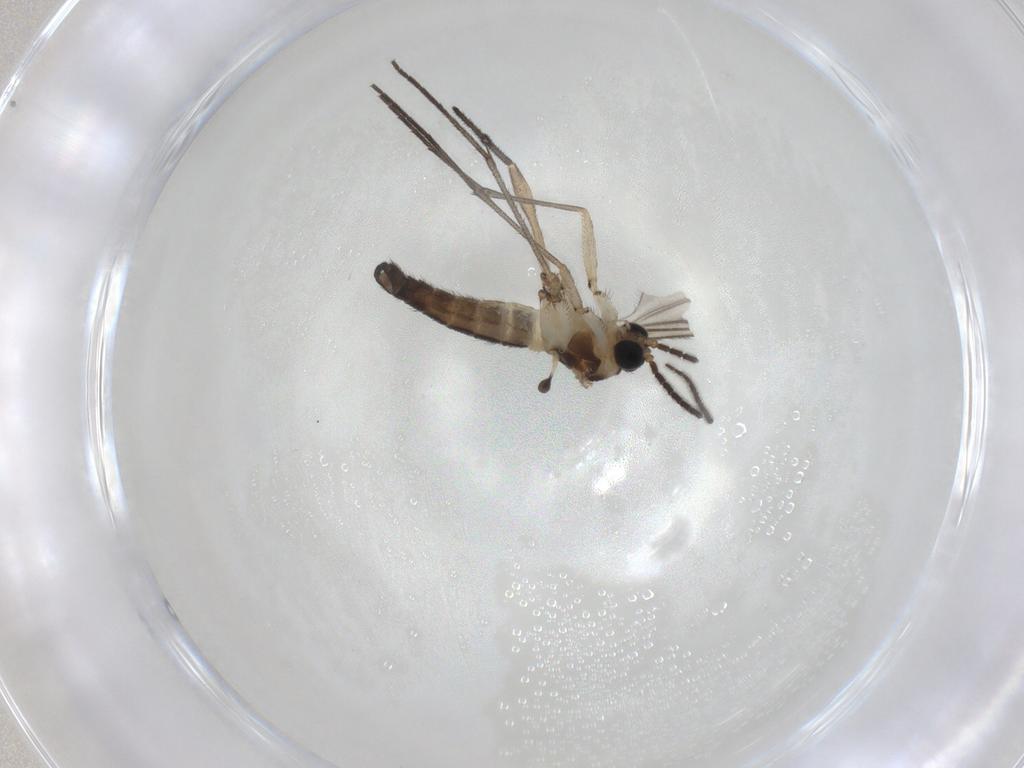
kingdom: Animalia
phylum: Arthropoda
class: Insecta
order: Diptera
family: Sciaridae
